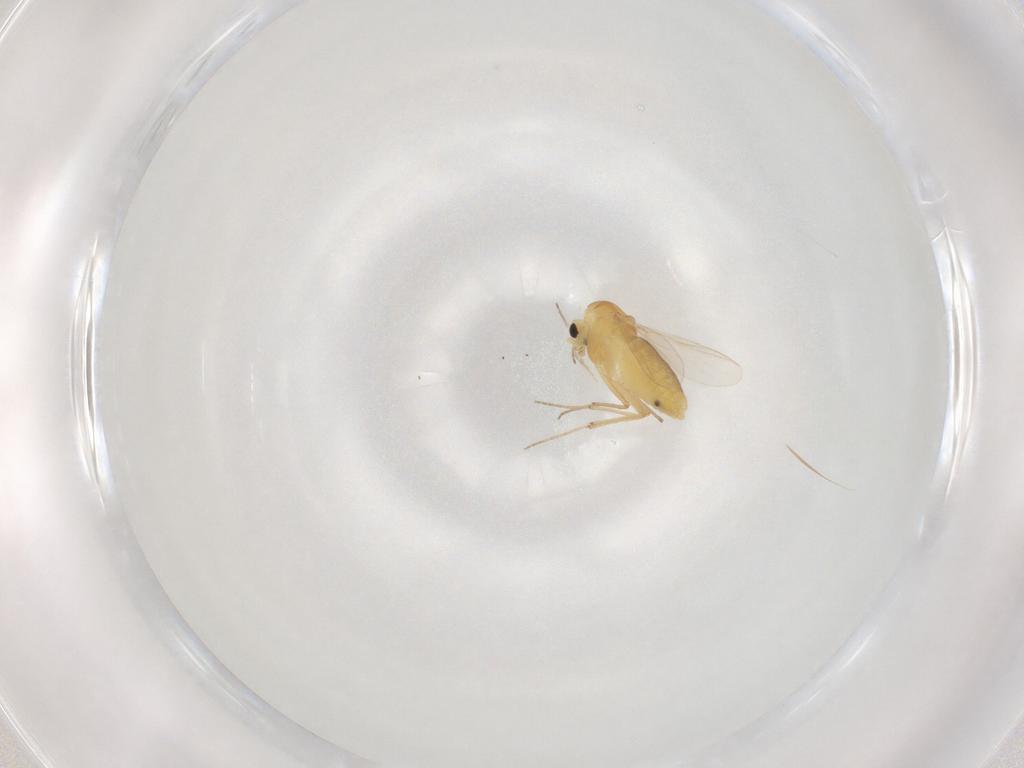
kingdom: Animalia
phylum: Arthropoda
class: Insecta
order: Diptera
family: Chironomidae
